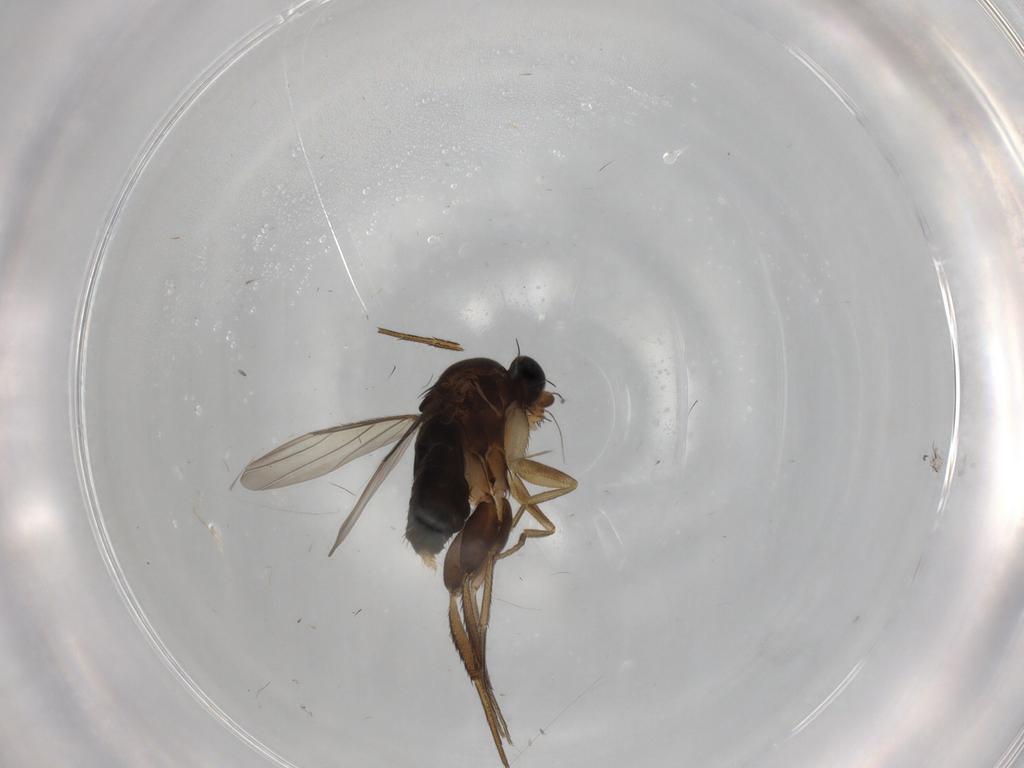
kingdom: Animalia
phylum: Arthropoda
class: Insecta
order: Diptera
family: Phoridae
